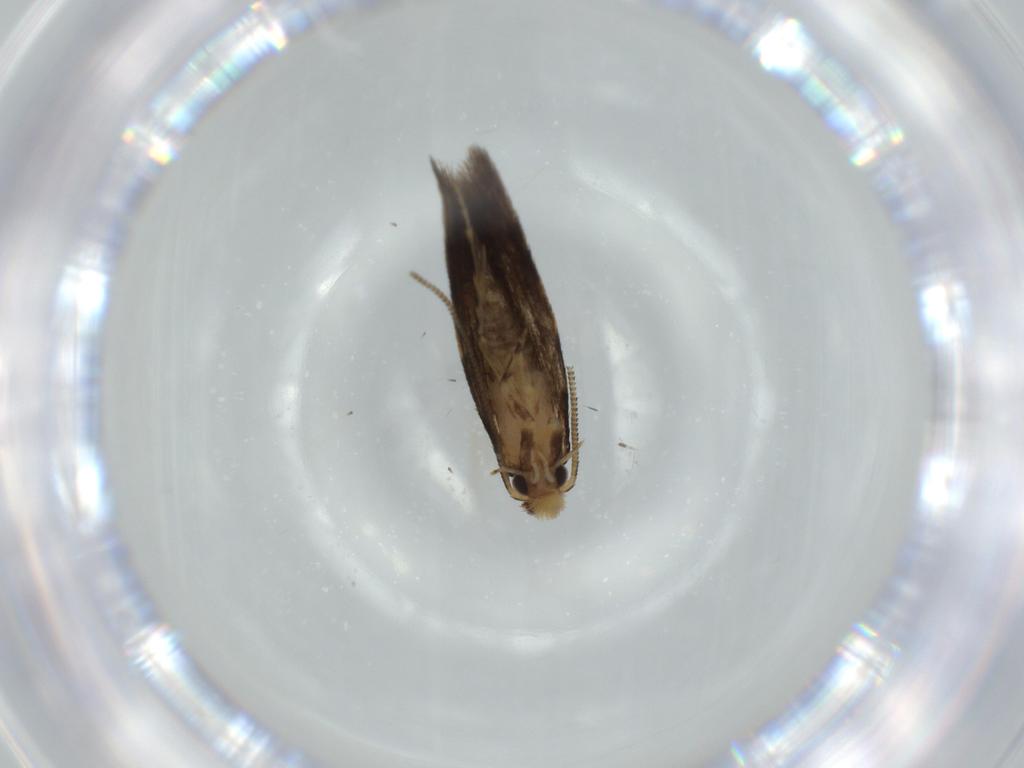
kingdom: Animalia
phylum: Arthropoda
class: Insecta
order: Lepidoptera
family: Tineidae
